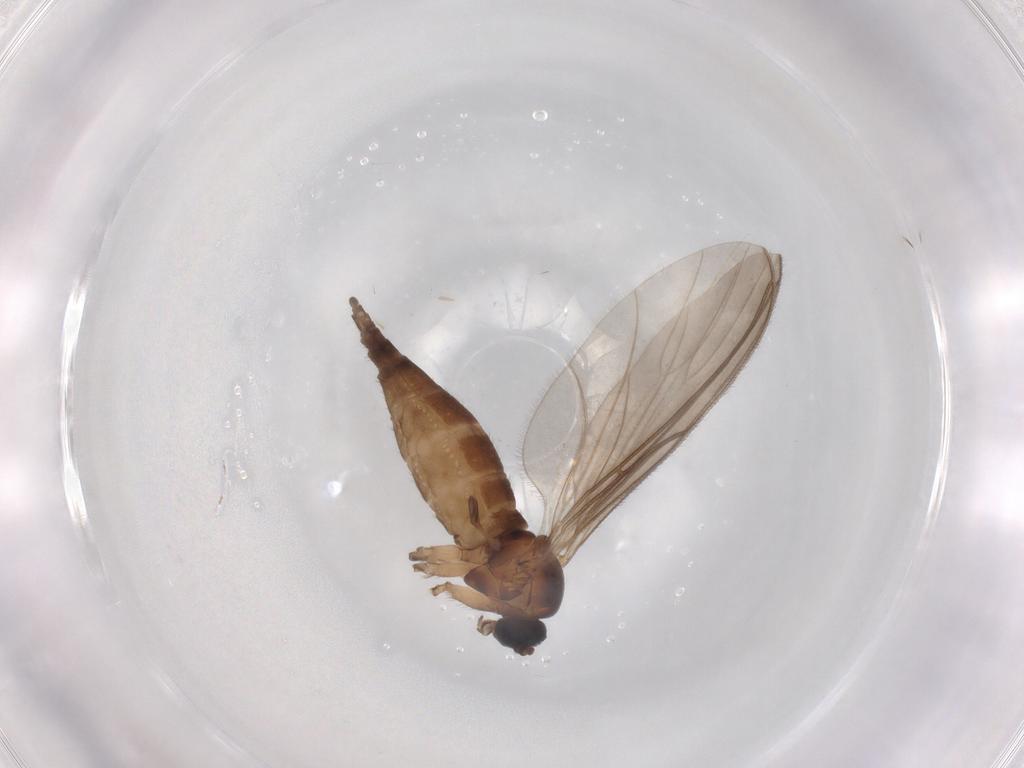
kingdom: Animalia
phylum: Arthropoda
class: Insecta
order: Diptera
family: Sciaridae
